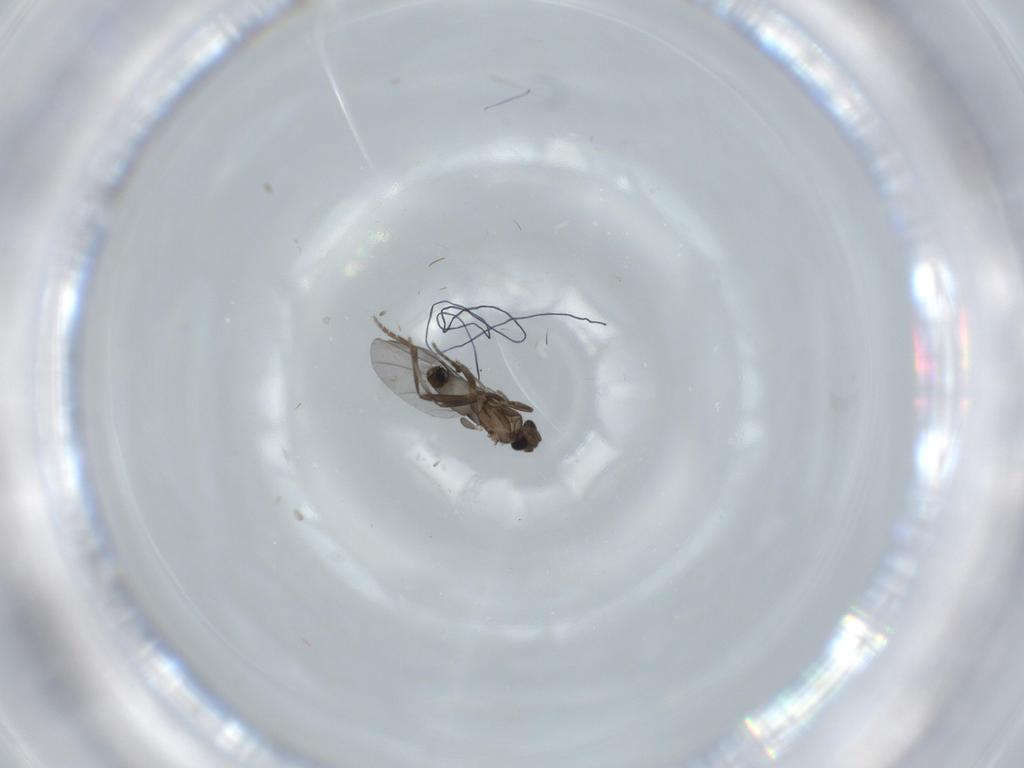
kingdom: Animalia
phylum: Arthropoda
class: Insecta
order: Diptera
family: Phoridae
